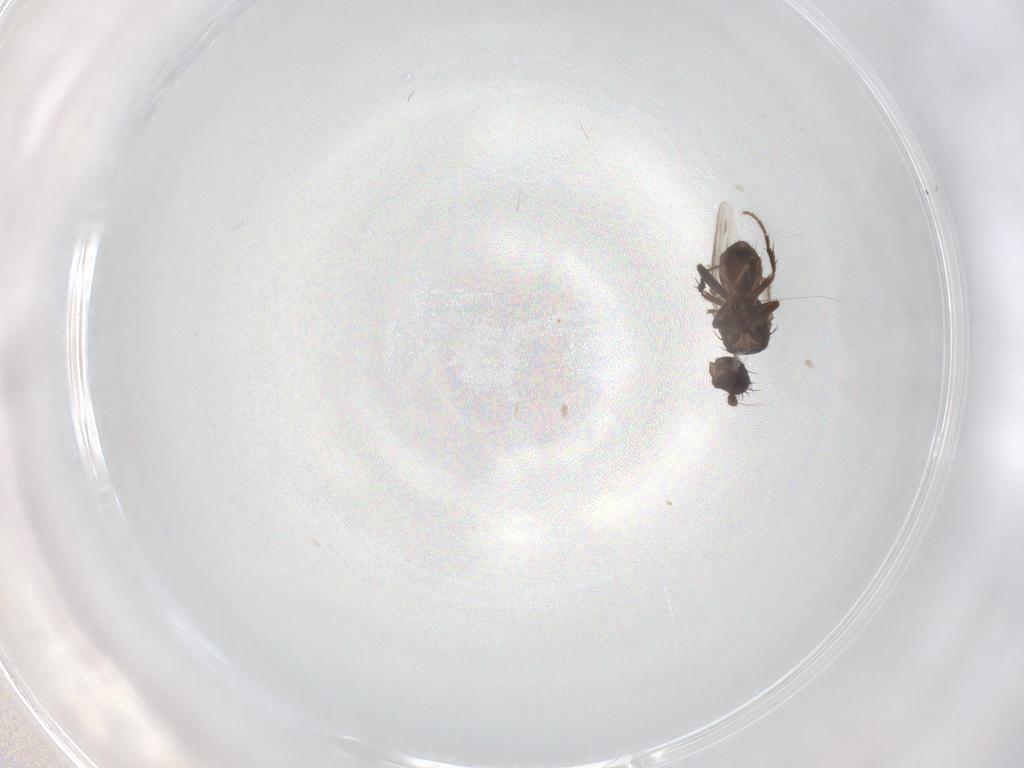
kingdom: Animalia
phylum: Arthropoda
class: Insecta
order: Diptera
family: Sphaeroceridae
